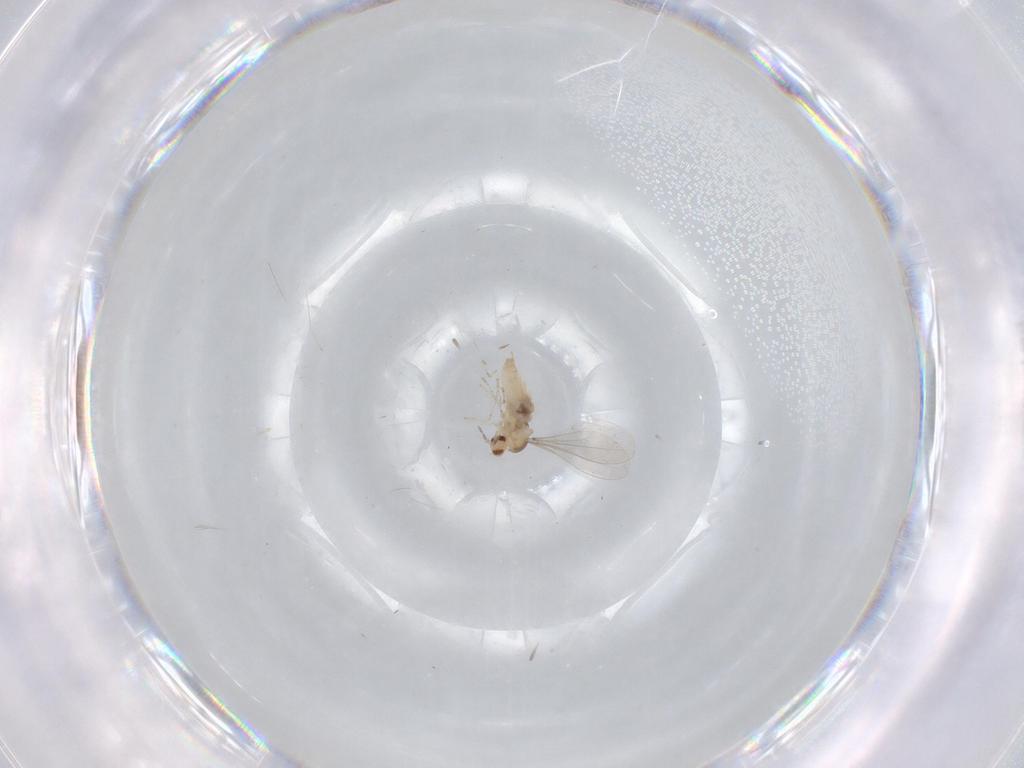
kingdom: Animalia
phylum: Arthropoda
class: Insecta
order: Diptera
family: Cecidomyiidae
